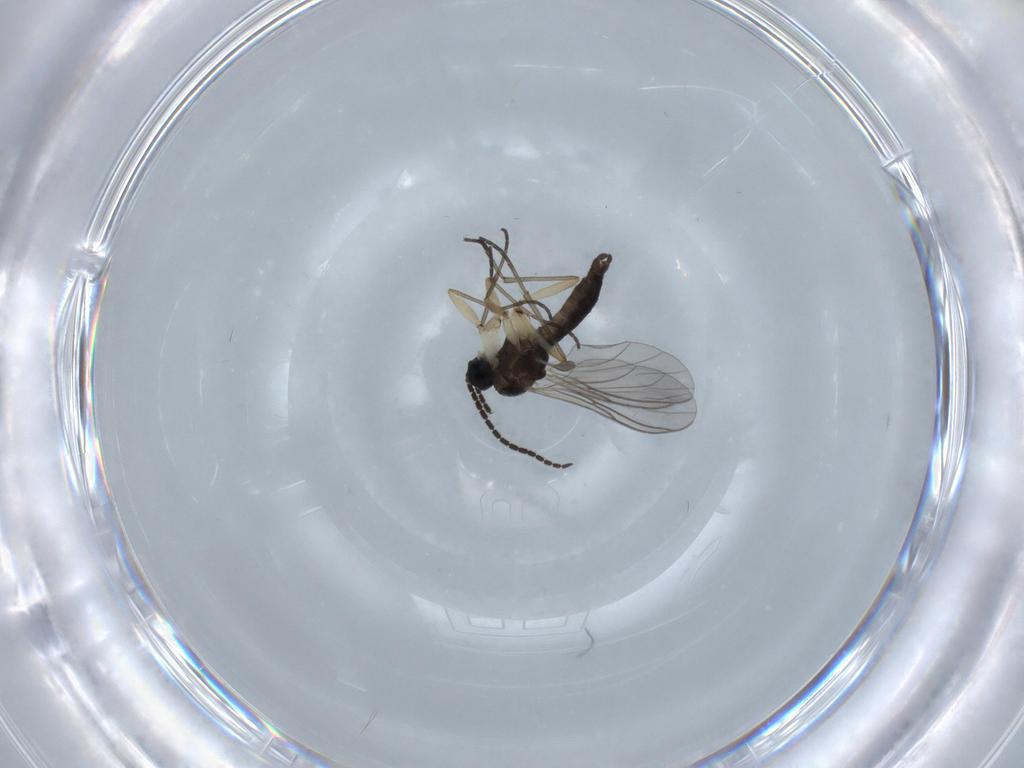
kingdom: Animalia
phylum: Arthropoda
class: Insecta
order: Diptera
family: Sciaridae
